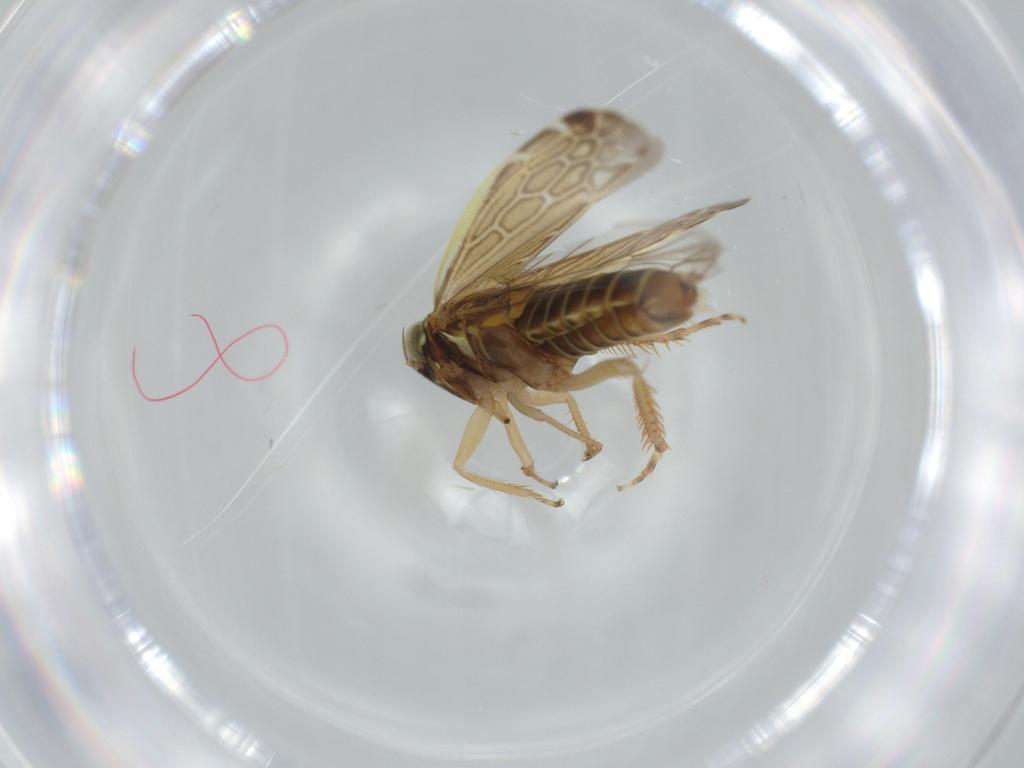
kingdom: Animalia
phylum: Arthropoda
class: Insecta
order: Hemiptera
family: Cicadellidae
